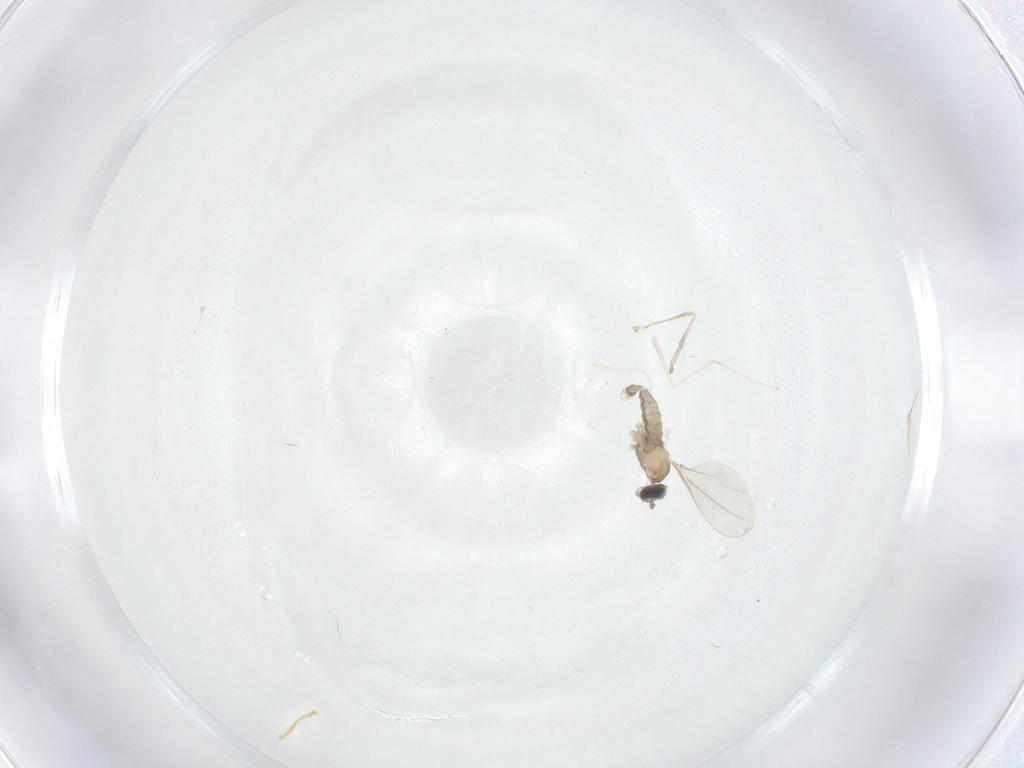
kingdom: Animalia
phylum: Arthropoda
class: Insecta
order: Diptera
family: Cecidomyiidae
